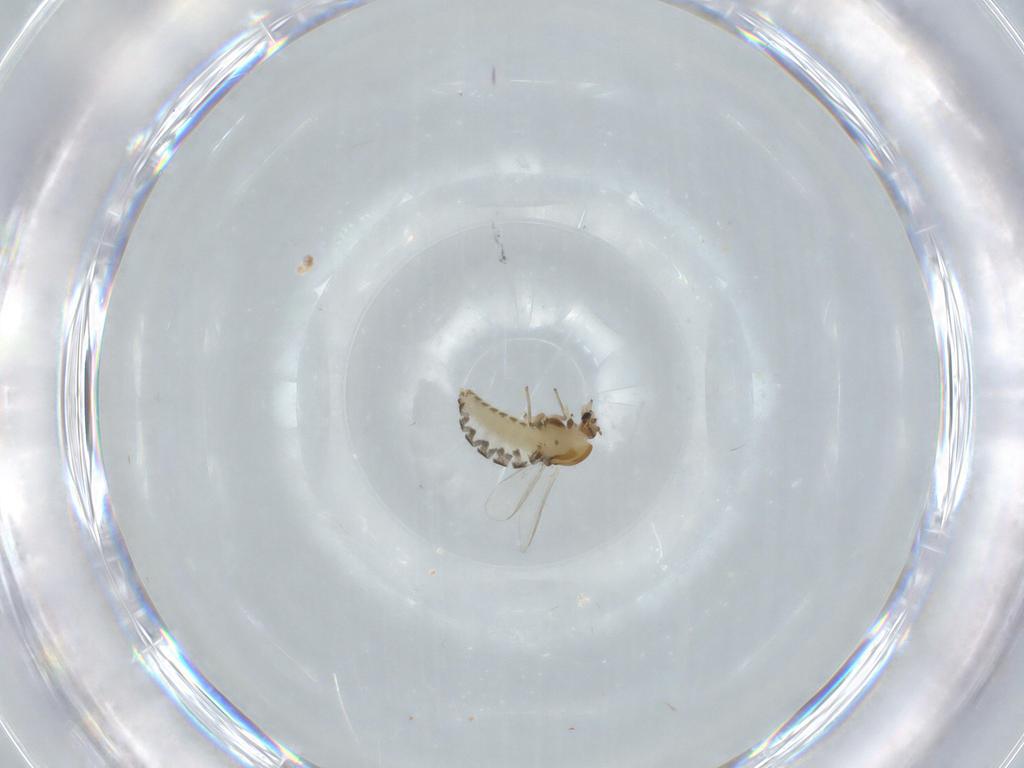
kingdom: Animalia
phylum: Arthropoda
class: Insecta
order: Diptera
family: Chironomidae
